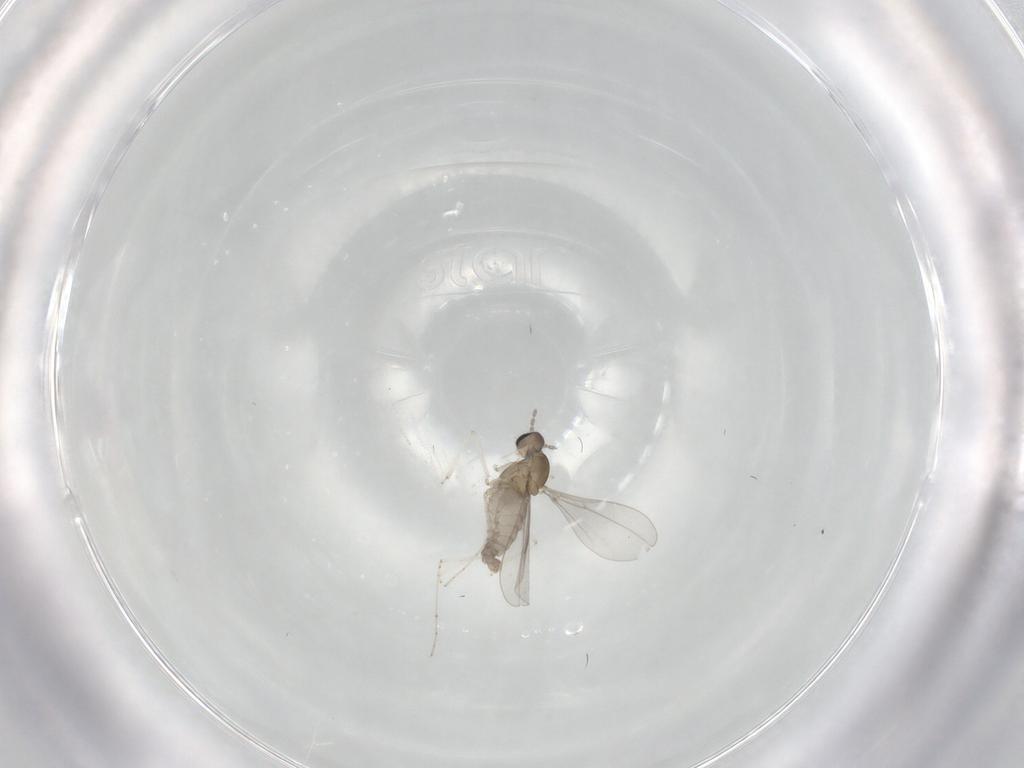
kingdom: Animalia
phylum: Arthropoda
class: Insecta
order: Diptera
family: Cecidomyiidae
